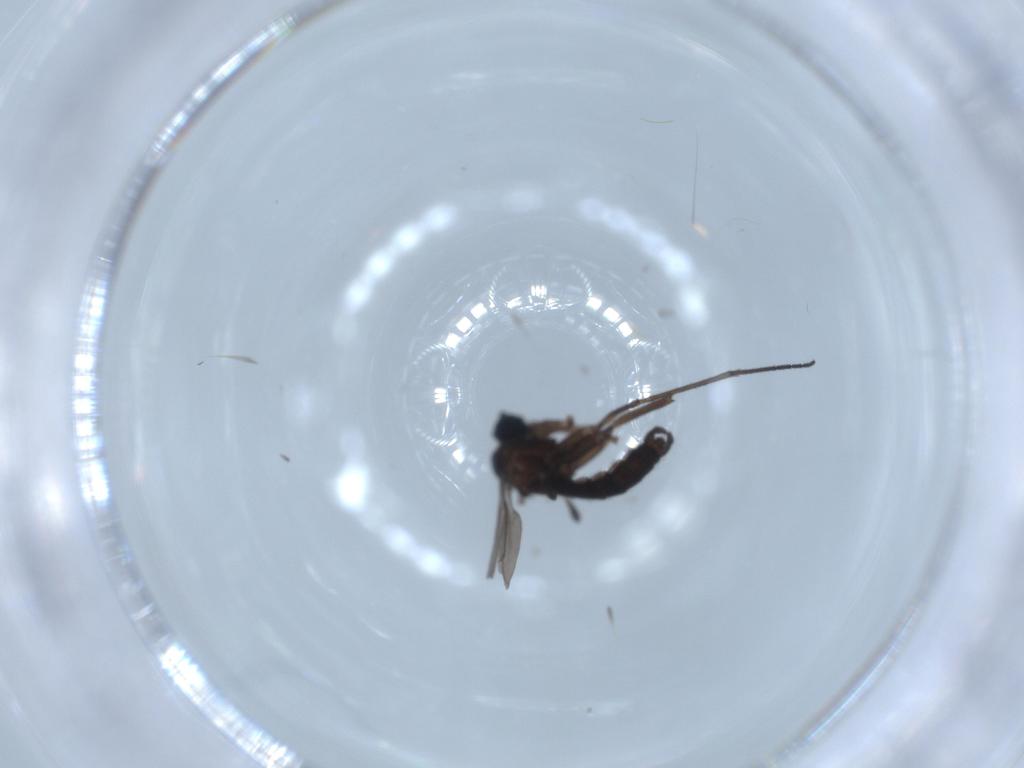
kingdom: Animalia
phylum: Arthropoda
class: Insecta
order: Diptera
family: Sciaridae
